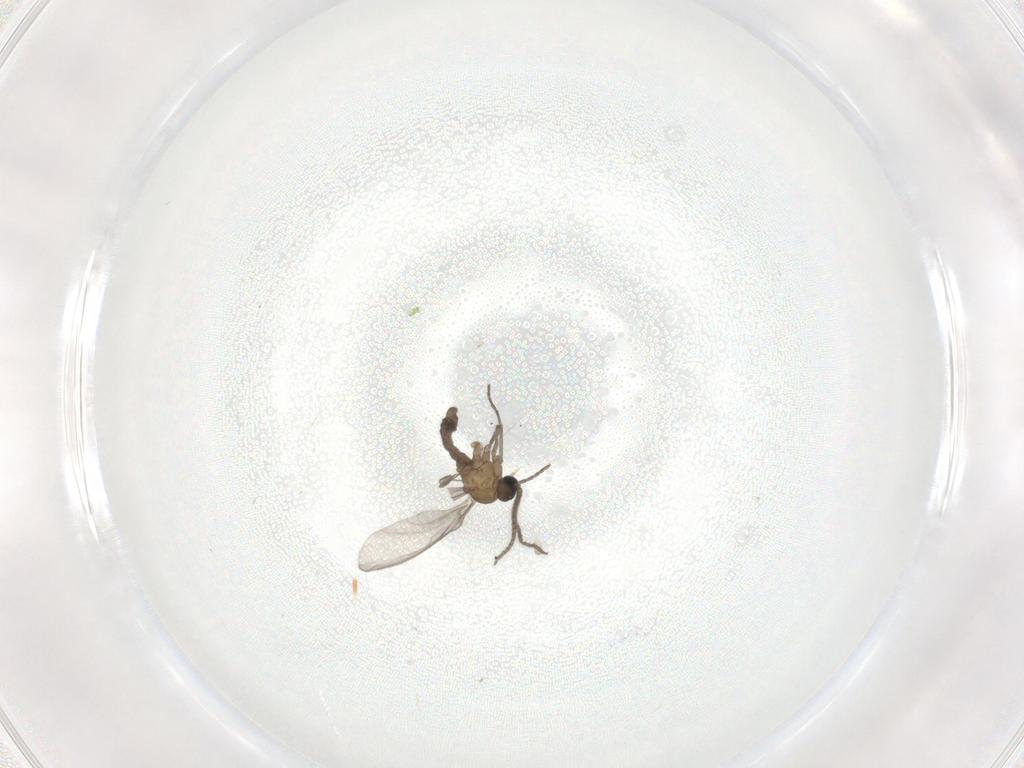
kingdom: Animalia
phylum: Arthropoda
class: Insecta
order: Diptera
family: Sciaridae
